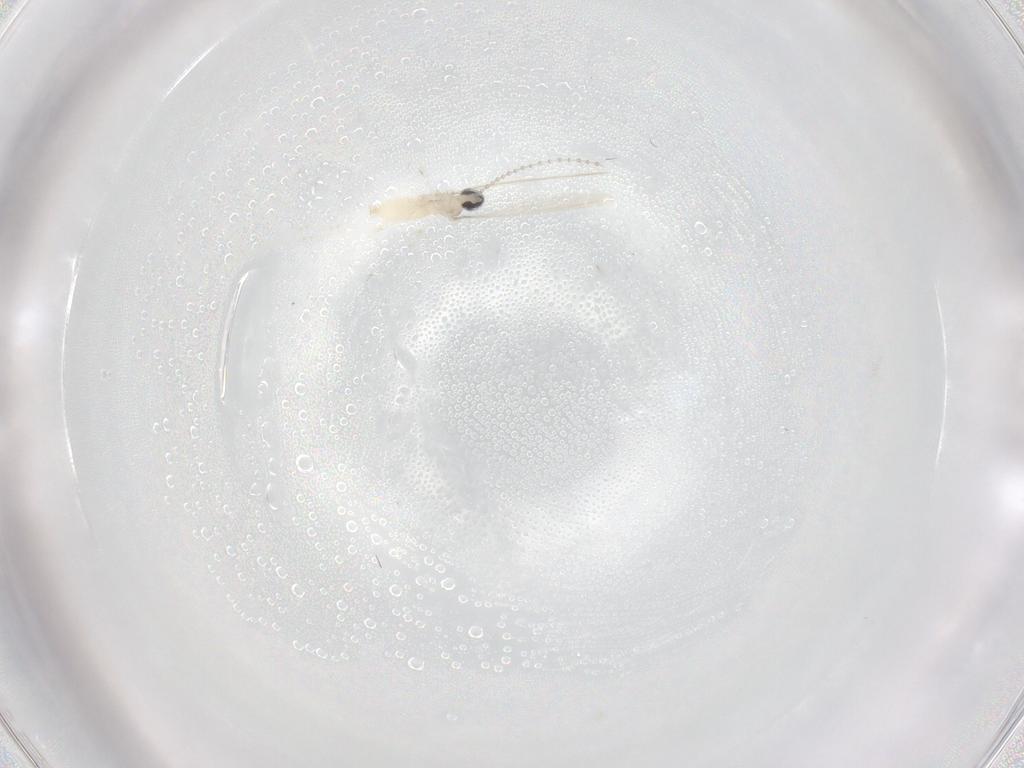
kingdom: Animalia
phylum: Arthropoda
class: Insecta
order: Diptera
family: Cecidomyiidae
